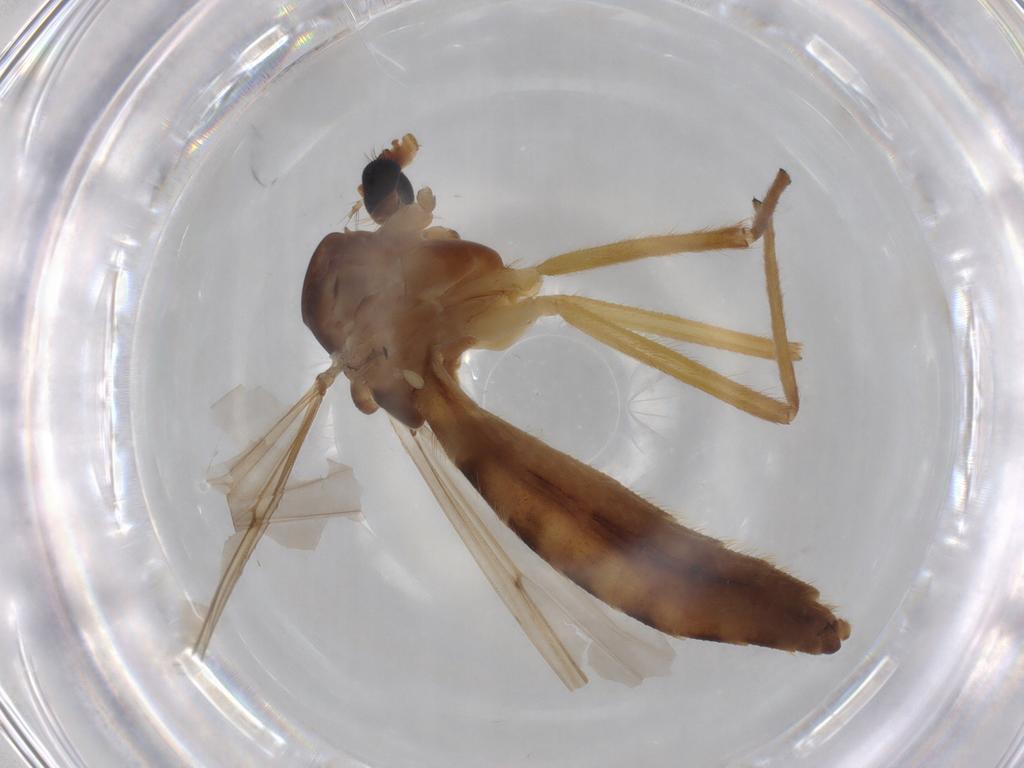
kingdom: Animalia
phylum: Arthropoda
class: Insecta
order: Diptera
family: Chironomidae
